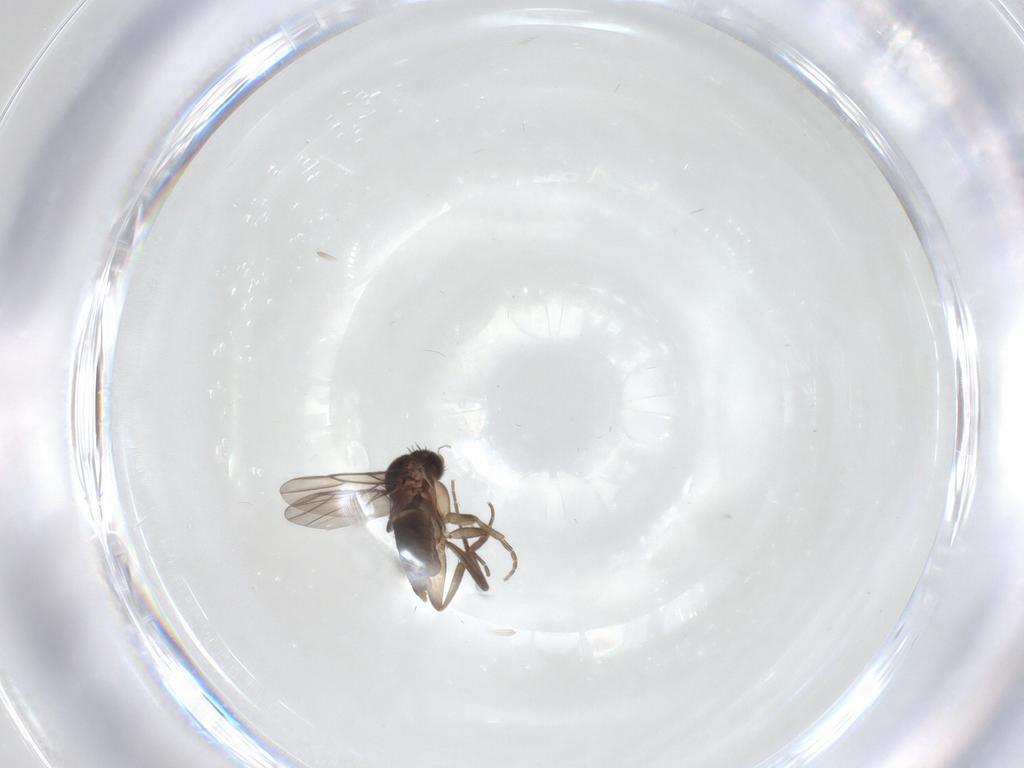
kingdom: Animalia
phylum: Arthropoda
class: Insecta
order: Diptera
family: Phoridae
